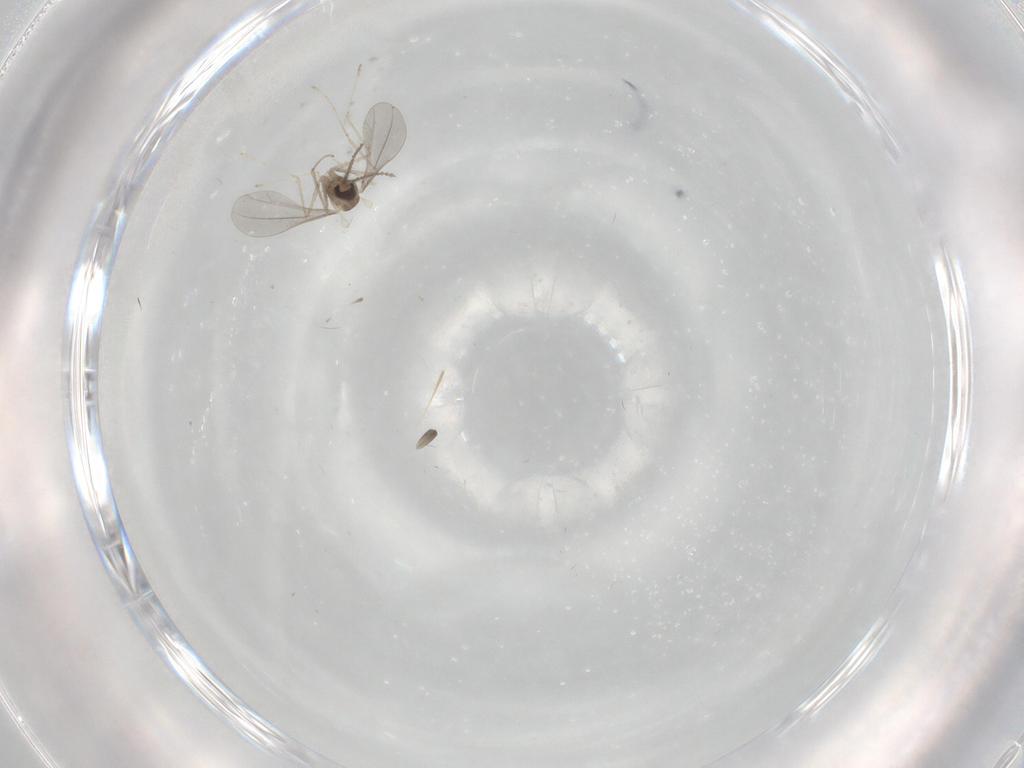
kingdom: Animalia
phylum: Arthropoda
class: Insecta
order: Diptera
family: Cecidomyiidae
